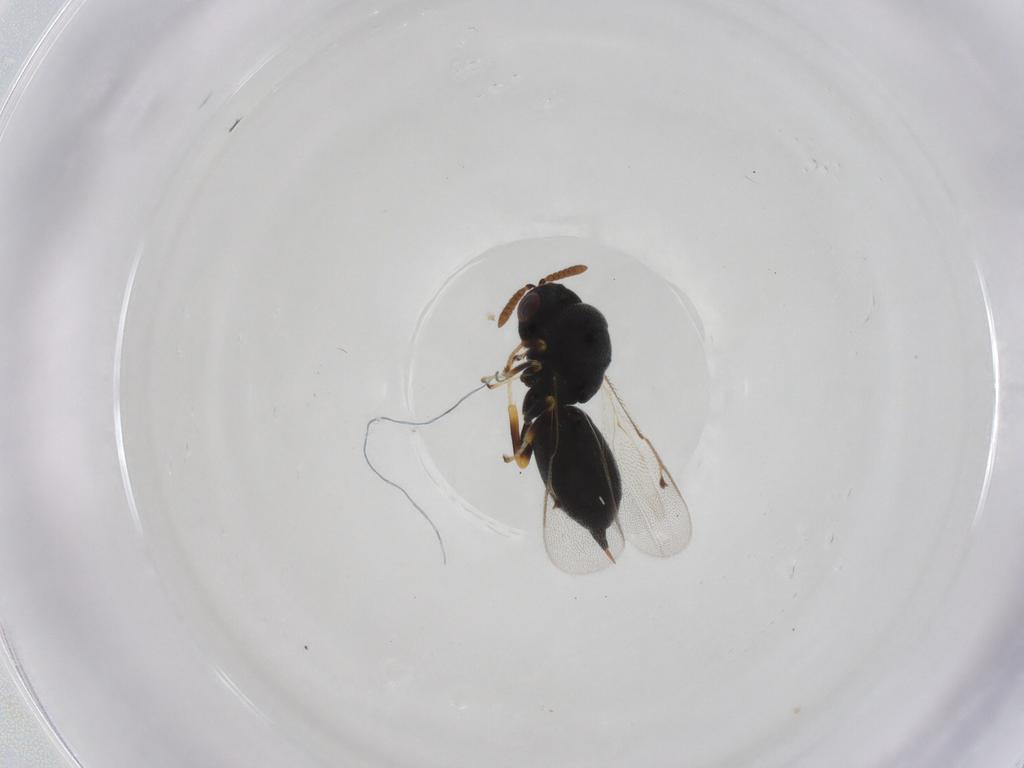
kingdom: Animalia
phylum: Arthropoda
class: Insecta
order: Hymenoptera
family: Eurytomidae
